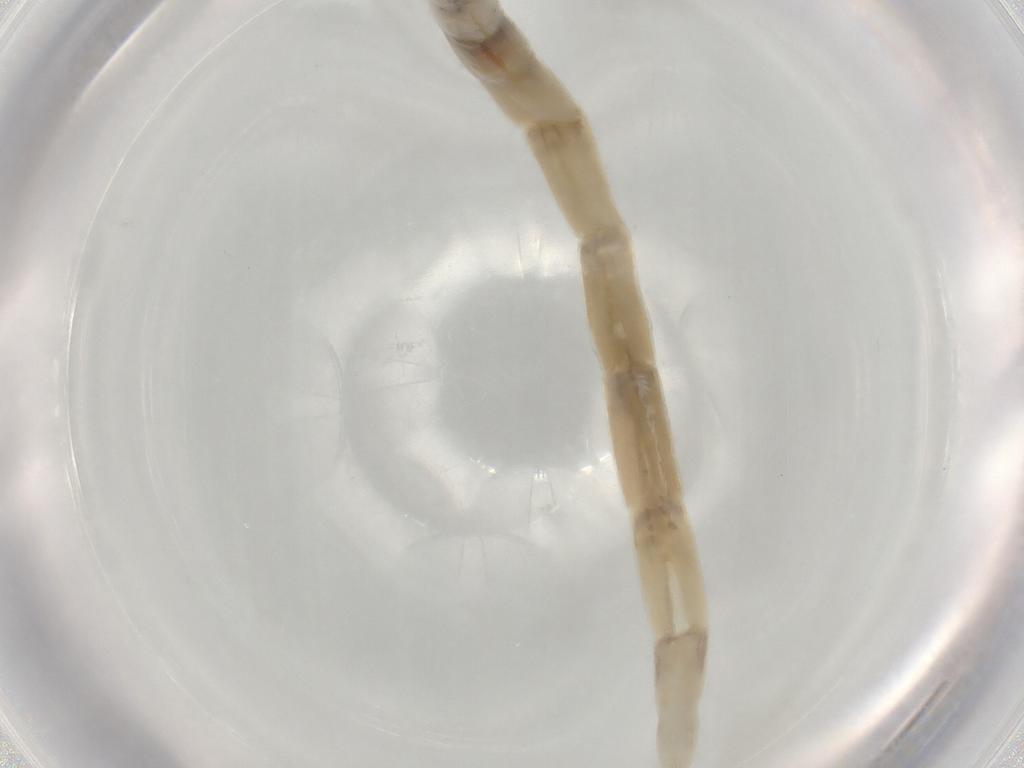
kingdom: Animalia
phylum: Arthropoda
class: Insecta
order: Diptera
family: Ceratopogonidae
